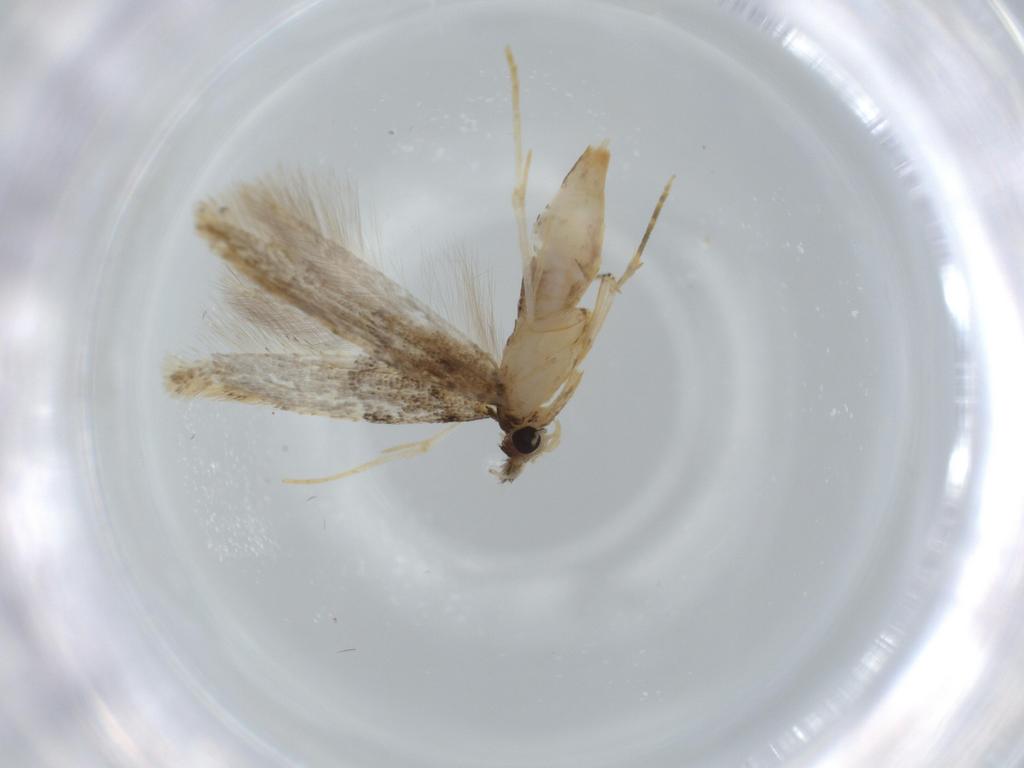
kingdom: Animalia
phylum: Arthropoda
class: Insecta
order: Lepidoptera
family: Tineidae
